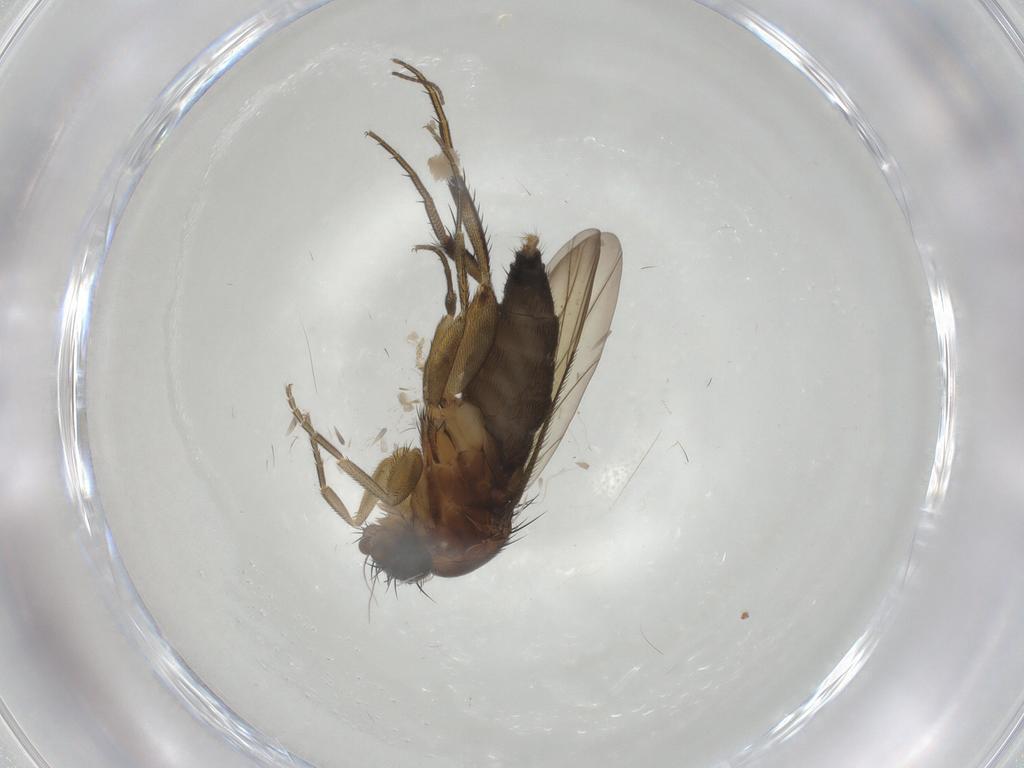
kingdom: Animalia
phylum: Arthropoda
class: Insecta
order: Diptera
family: Phoridae
